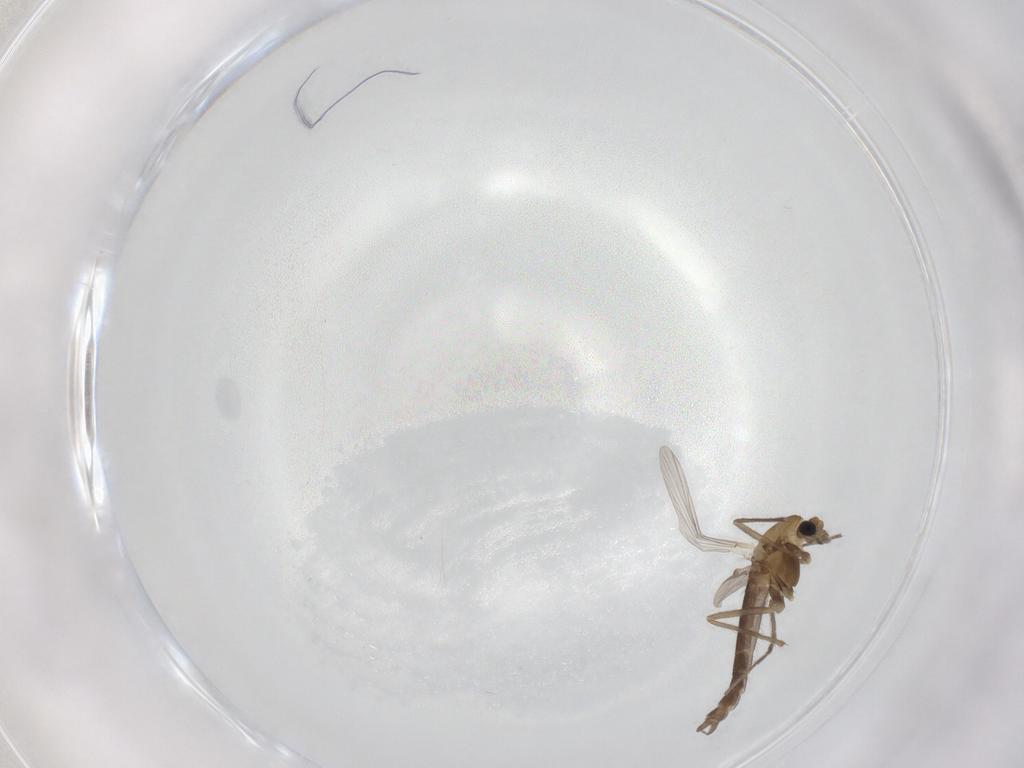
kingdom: Animalia
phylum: Arthropoda
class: Insecta
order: Diptera
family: Chironomidae
